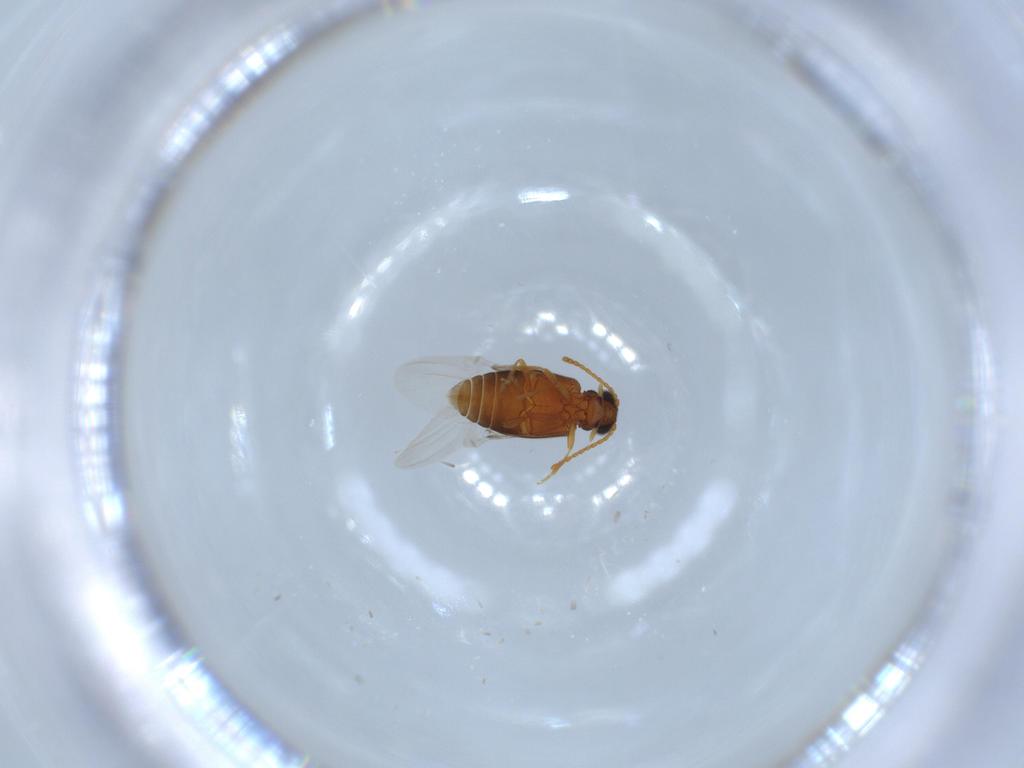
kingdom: Animalia
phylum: Arthropoda
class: Insecta
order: Coleoptera
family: Aderidae
